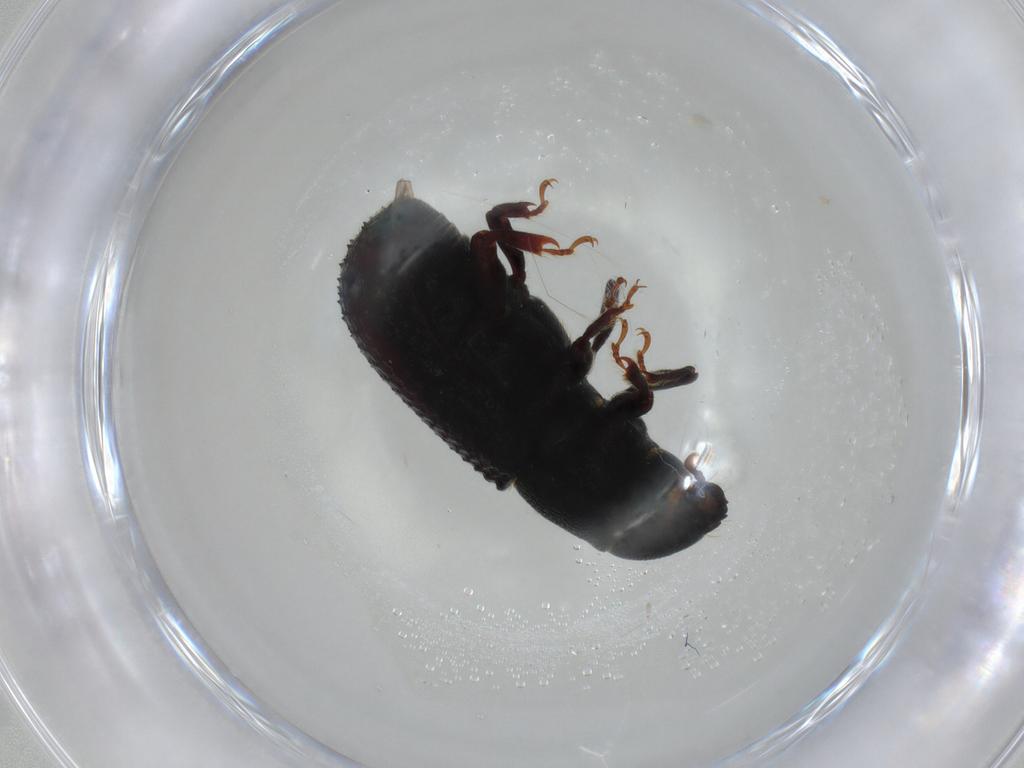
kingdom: Animalia
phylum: Arthropoda
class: Insecta
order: Coleoptera
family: Curculionidae
